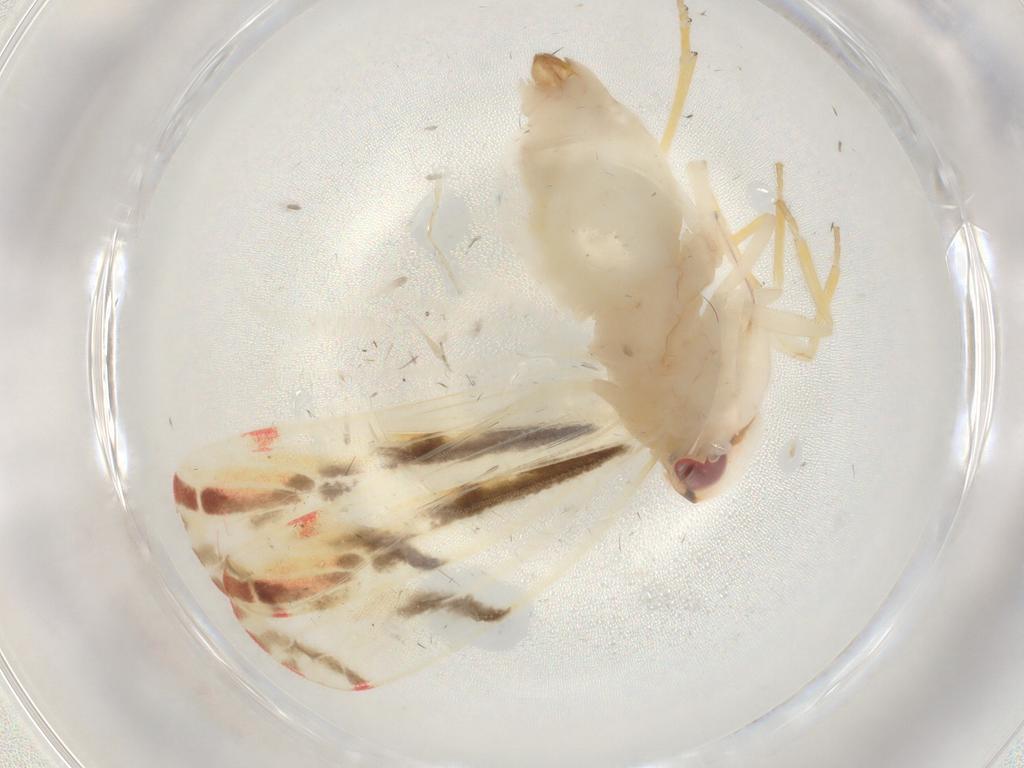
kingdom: Animalia
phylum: Arthropoda
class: Insecta
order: Hemiptera
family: Derbidae
